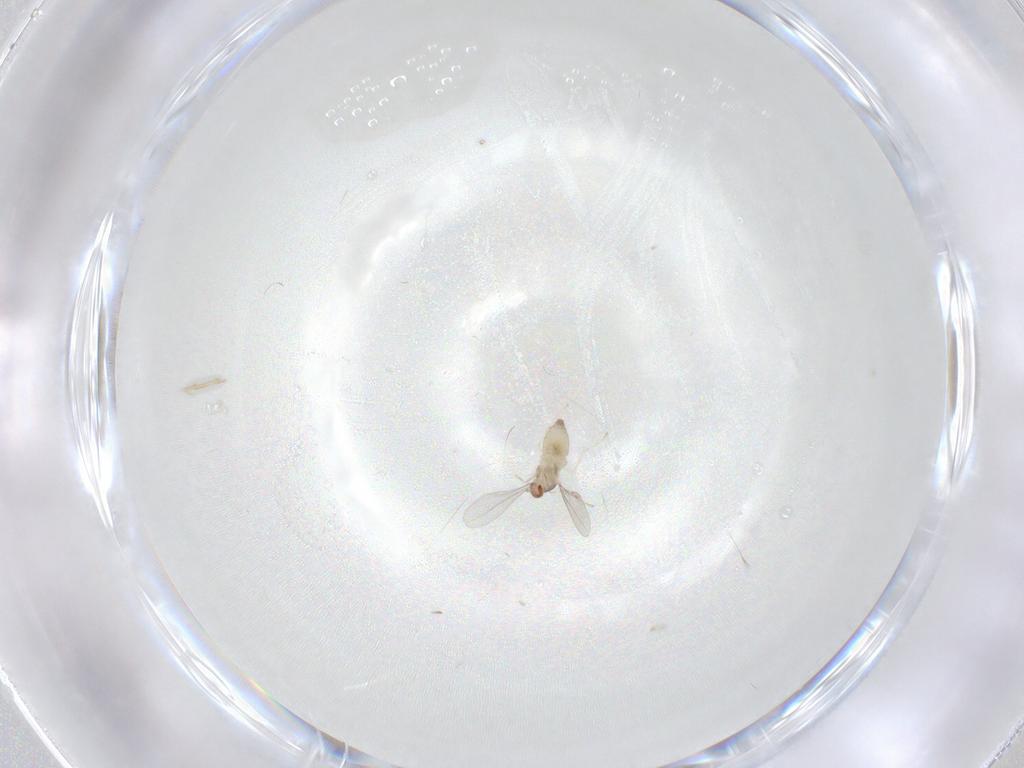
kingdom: Animalia
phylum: Arthropoda
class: Insecta
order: Diptera
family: Cecidomyiidae
